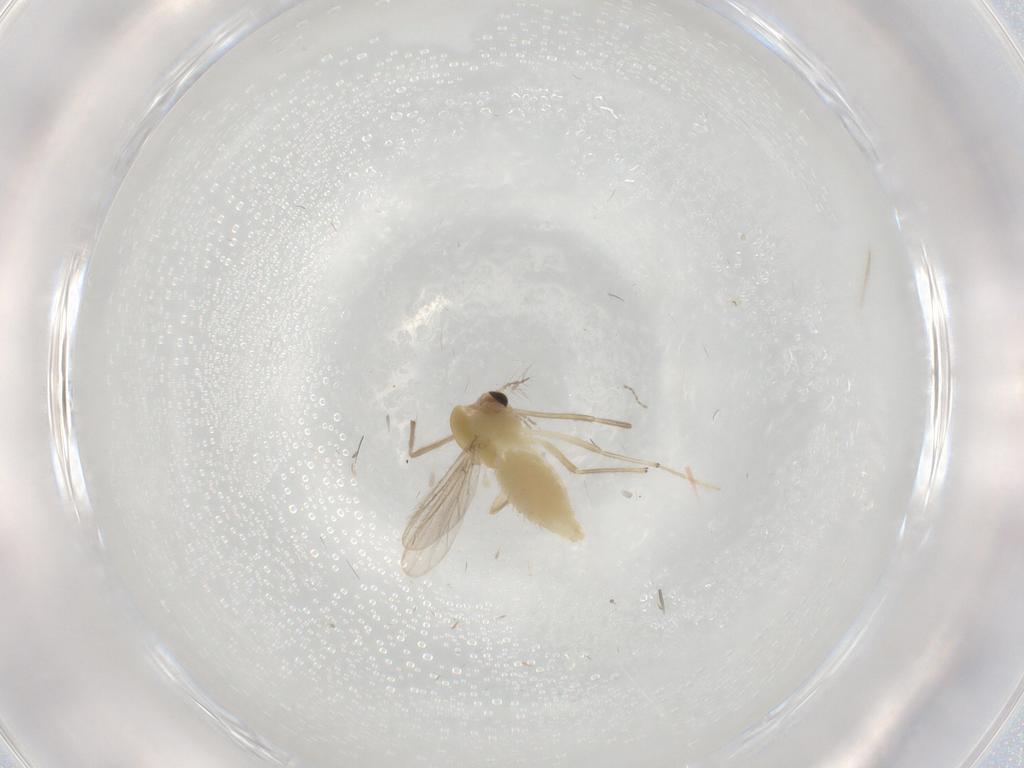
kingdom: Animalia
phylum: Arthropoda
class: Insecta
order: Diptera
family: Chironomidae
